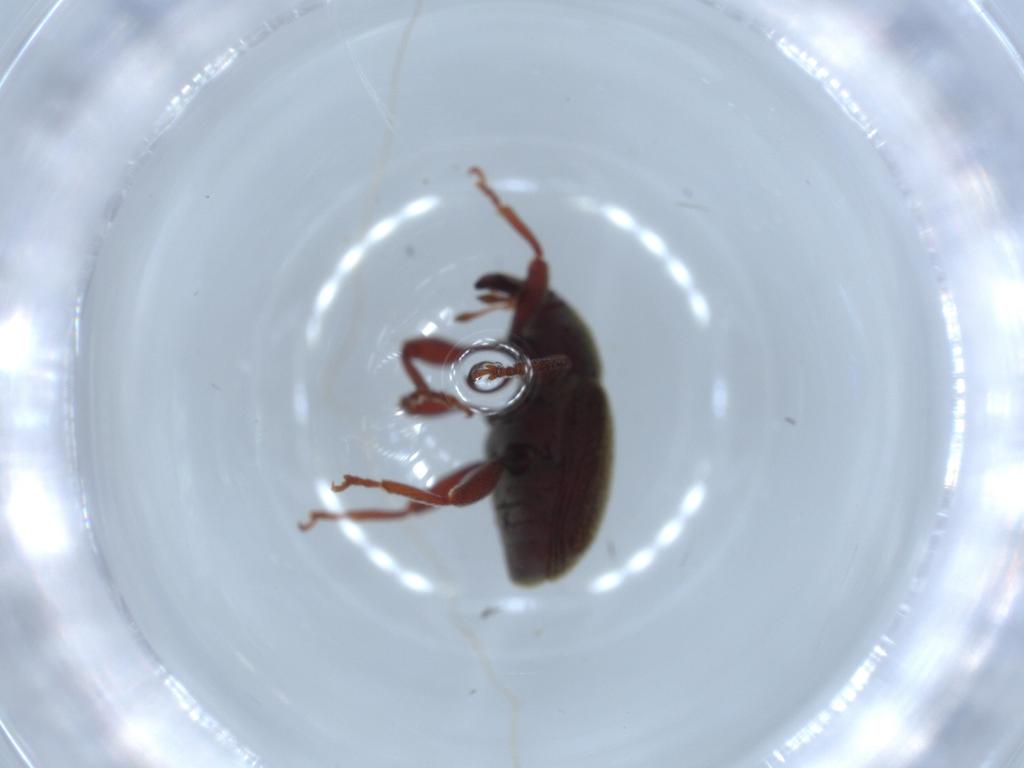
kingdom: Animalia
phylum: Arthropoda
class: Insecta
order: Coleoptera
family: Curculionidae
